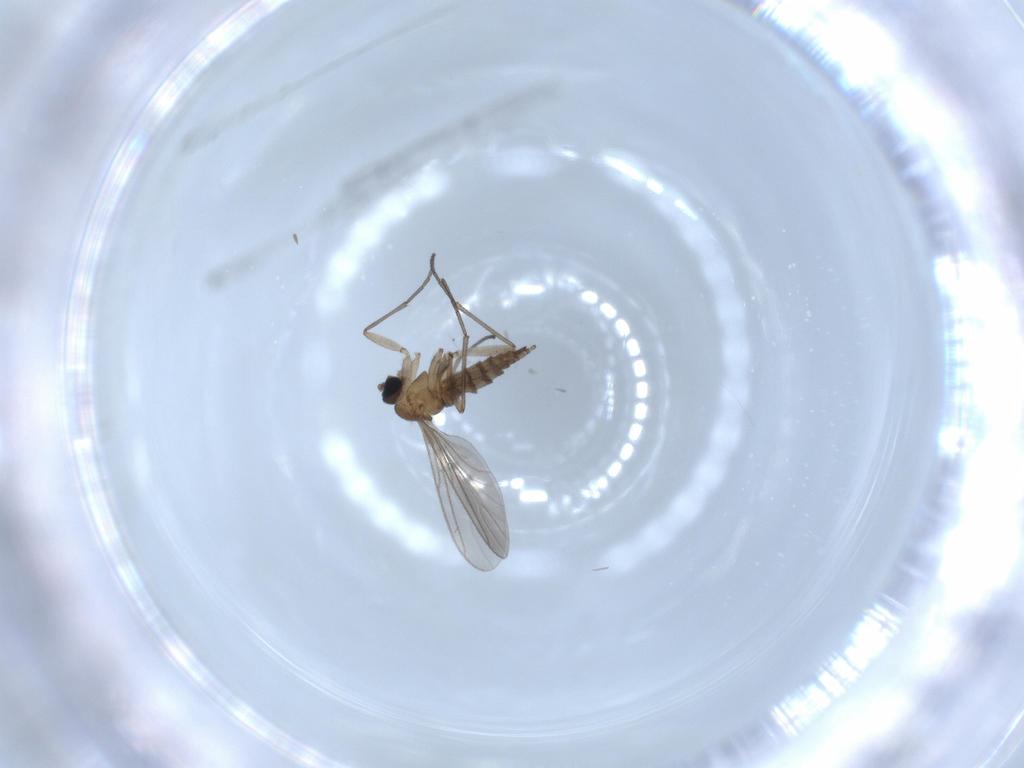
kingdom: Animalia
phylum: Arthropoda
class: Insecta
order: Diptera
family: Sciaridae
